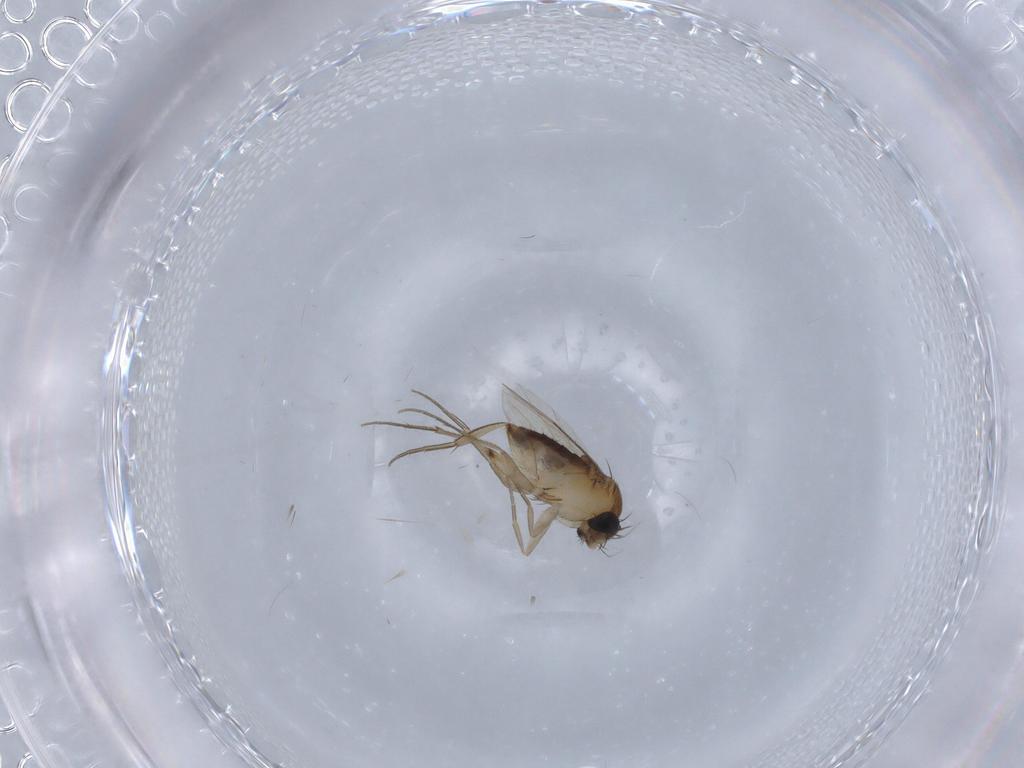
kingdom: Animalia
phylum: Arthropoda
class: Insecta
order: Diptera
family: Phoridae
